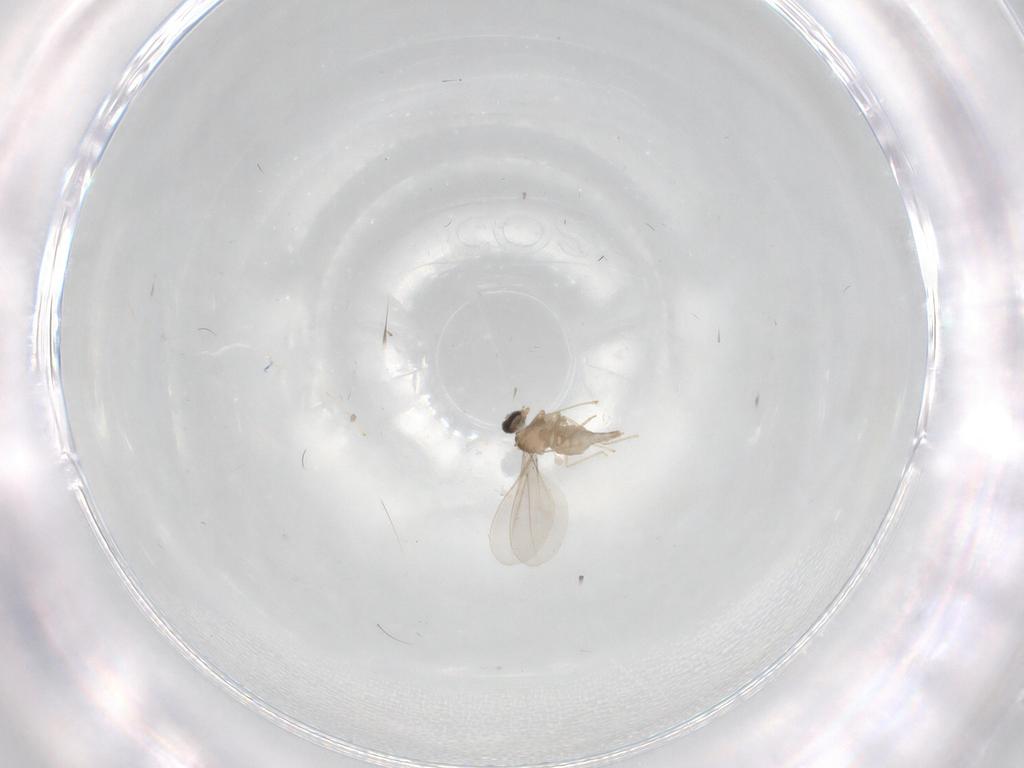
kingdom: Animalia
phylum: Arthropoda
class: Insecta
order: Diptera
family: Cecidomyiidae
